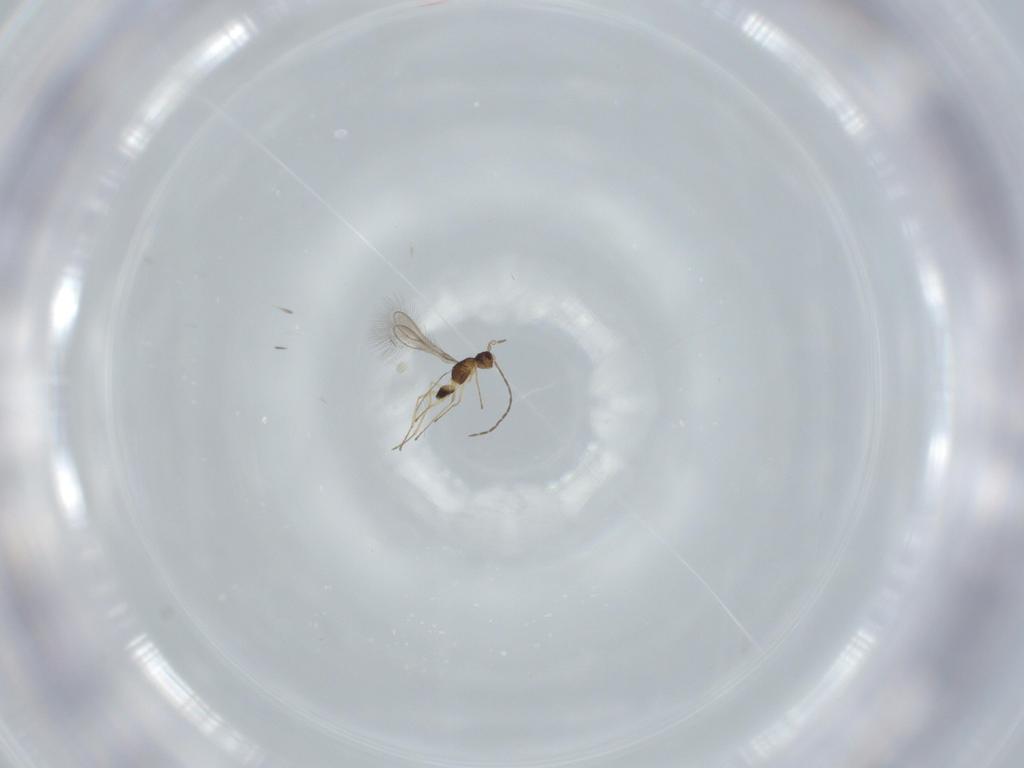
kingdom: Animalia
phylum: Arthropoda
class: Insecta
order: Hymenoptera
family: Mymaridae
